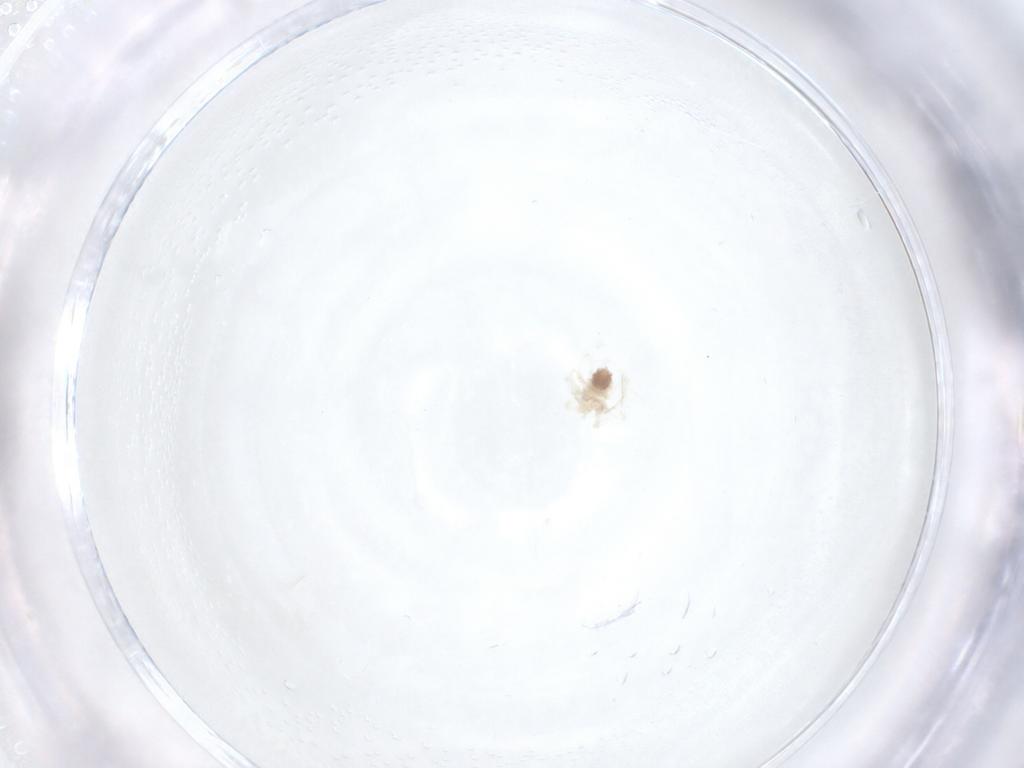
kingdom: Animalia
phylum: Arthropoda
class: Arachnida
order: Trombidiformes
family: Anystidae
